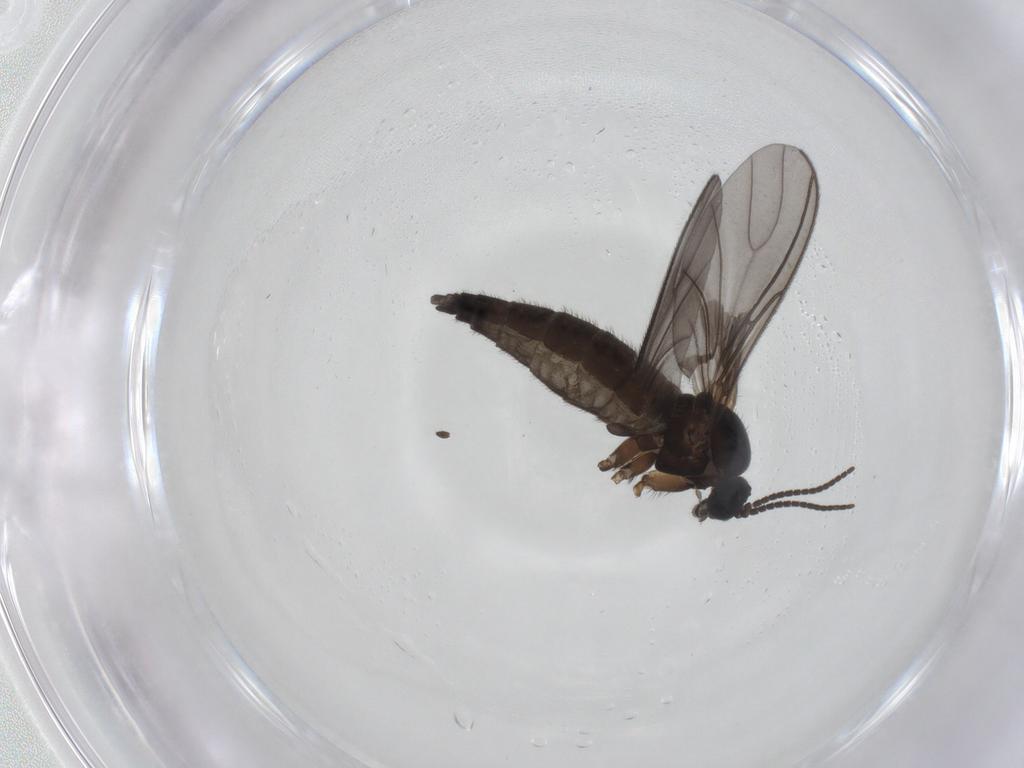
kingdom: Animalia
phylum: Arthropoda
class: Insecta
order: Diptera
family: Sciaridae
